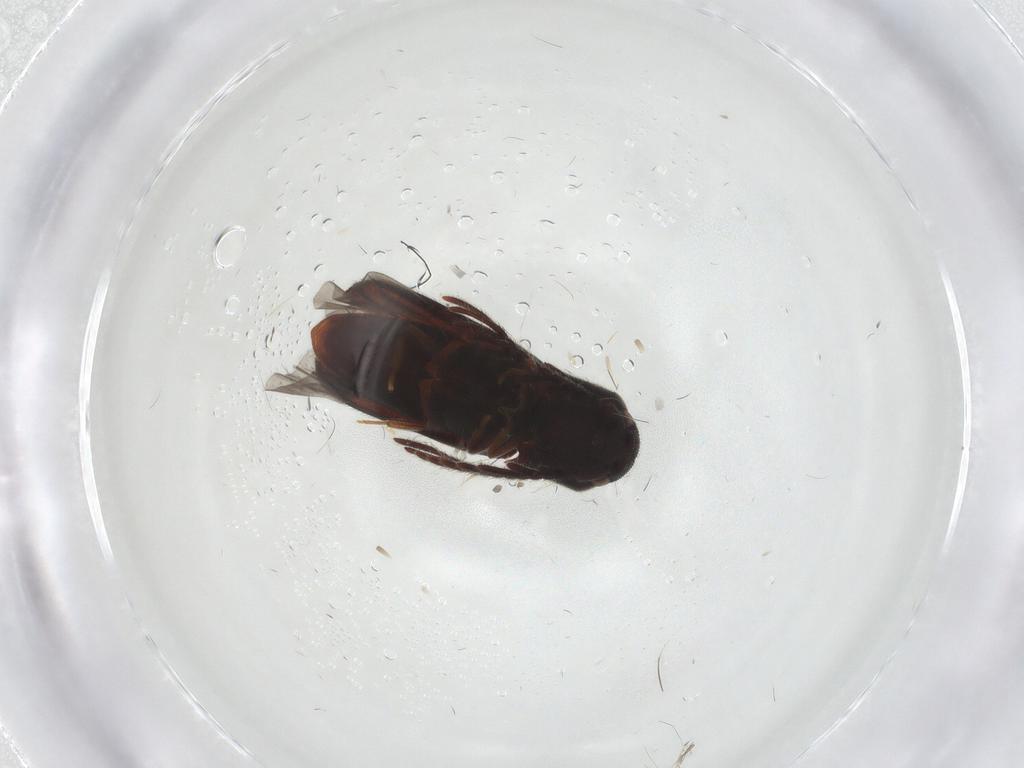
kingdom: Animalia
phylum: Arthropoda
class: Insecta
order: Coleoptera
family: Eucnemidae
